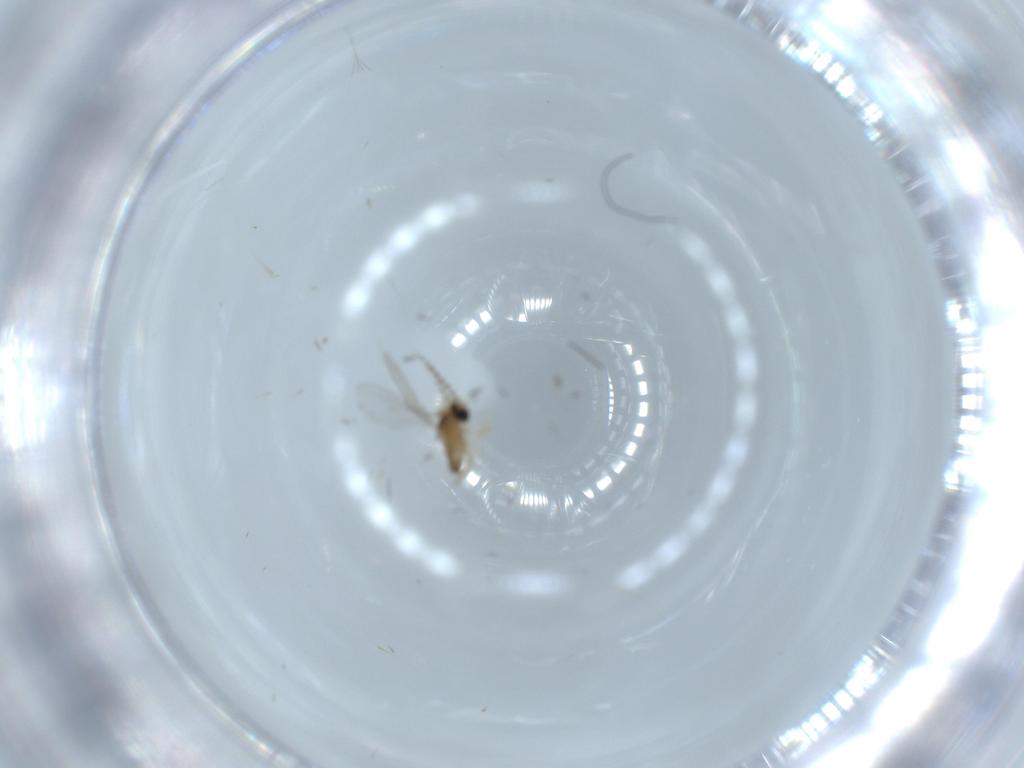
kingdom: Animalia
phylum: Arthropoda
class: Insecta
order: Diptera
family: Cecidomyiidae
